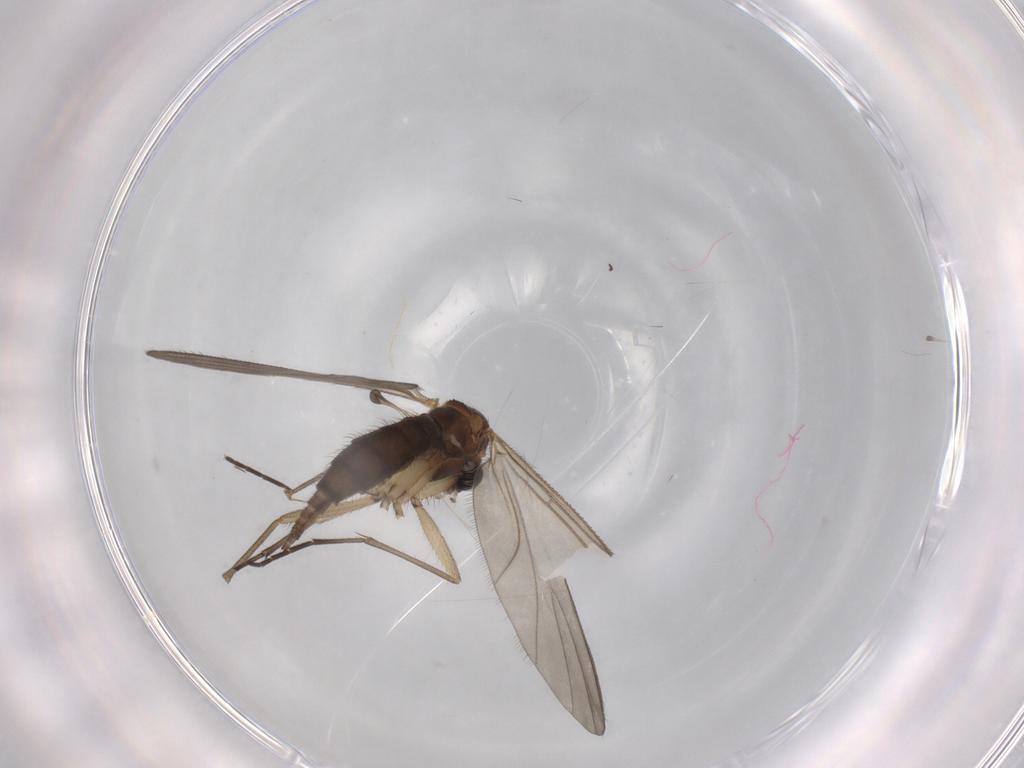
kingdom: Animalia
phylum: Arthropoda
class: Insecta
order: Diptera
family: Sciaridae
